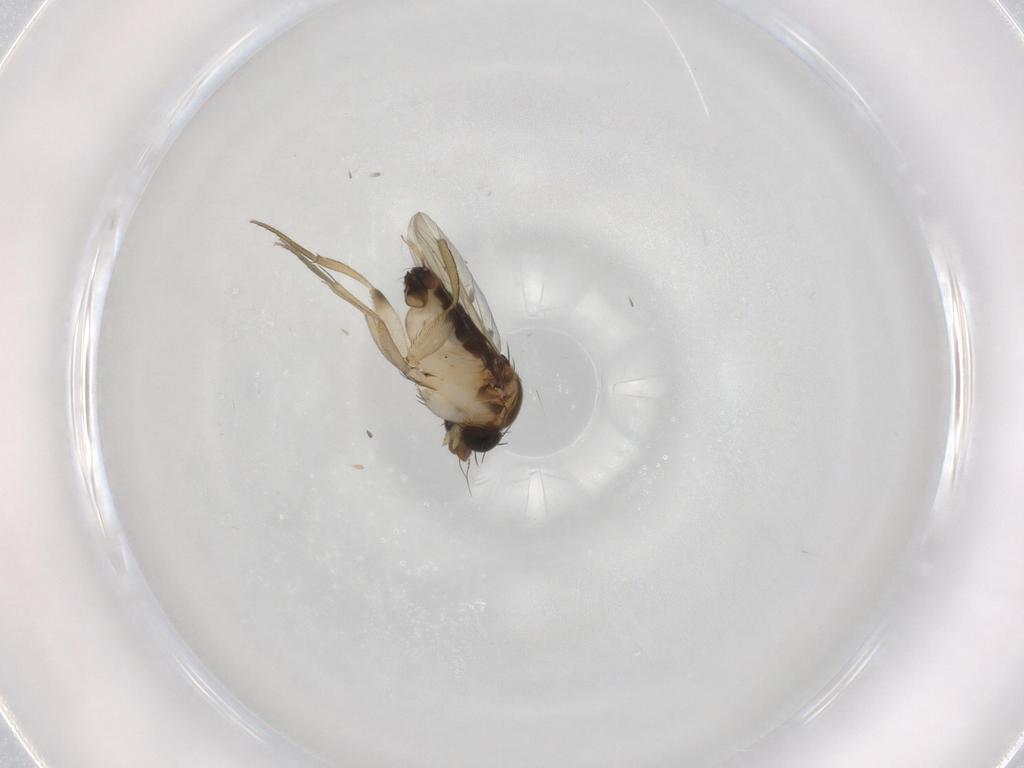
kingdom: Animalia
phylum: Arthropoda
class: Insecta
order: Diptera
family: Phoridae
